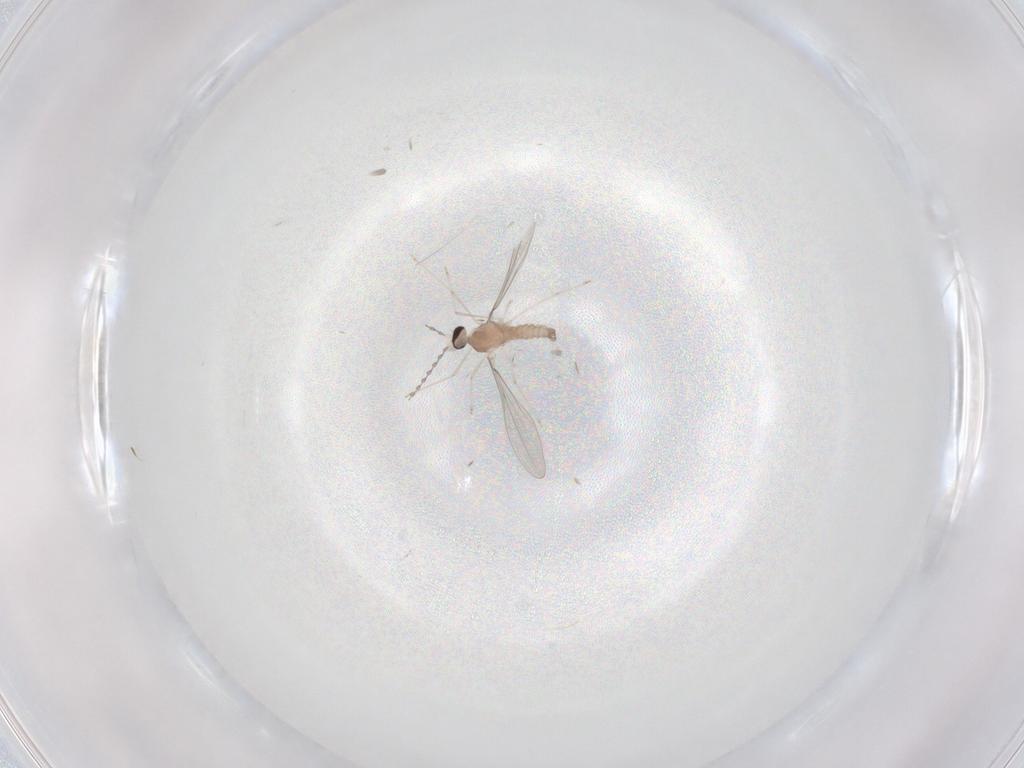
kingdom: Animalia
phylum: Arthropoda
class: Insecta
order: Diptera
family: Cecidomyiidae
